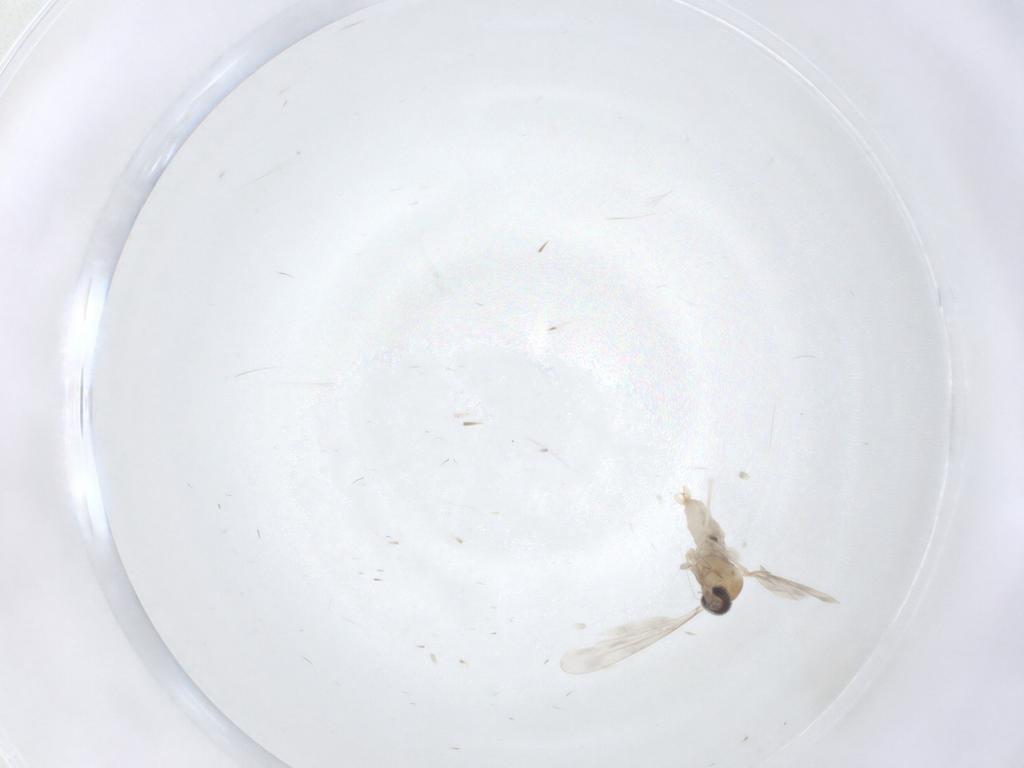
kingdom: Animalia
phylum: Arthropoda
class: Insecta
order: Diptera
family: Cecidomyiidae
